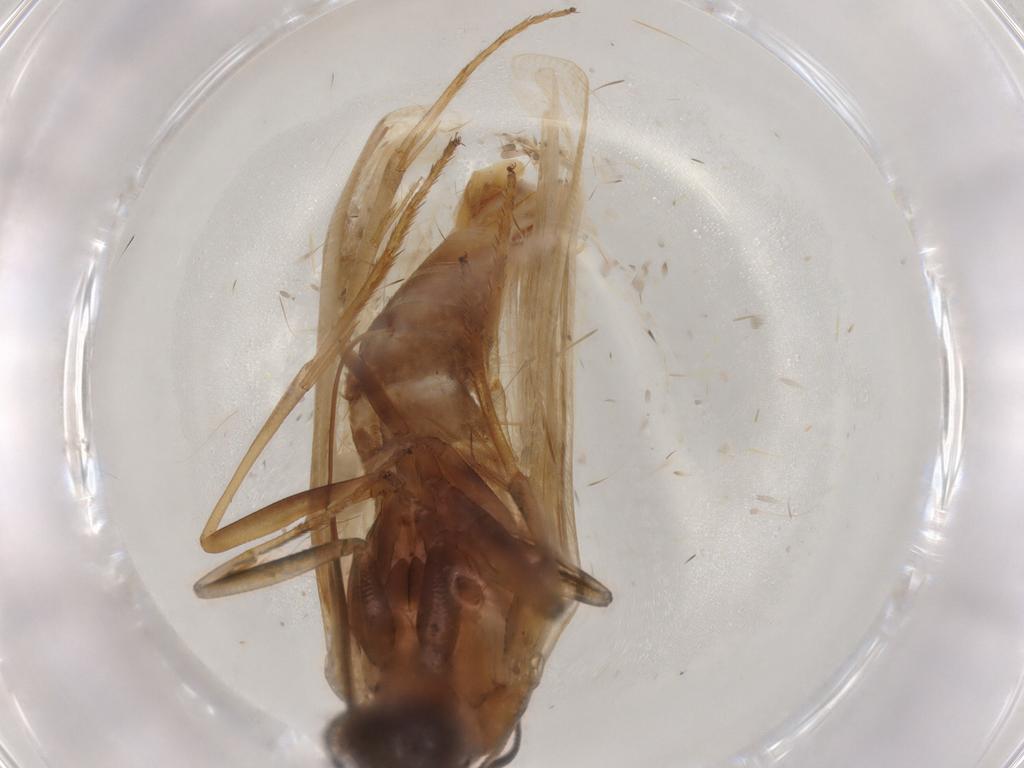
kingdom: Animalia
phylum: Arthropoda
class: Insecta
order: Lepidoptera
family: Pyralidae
